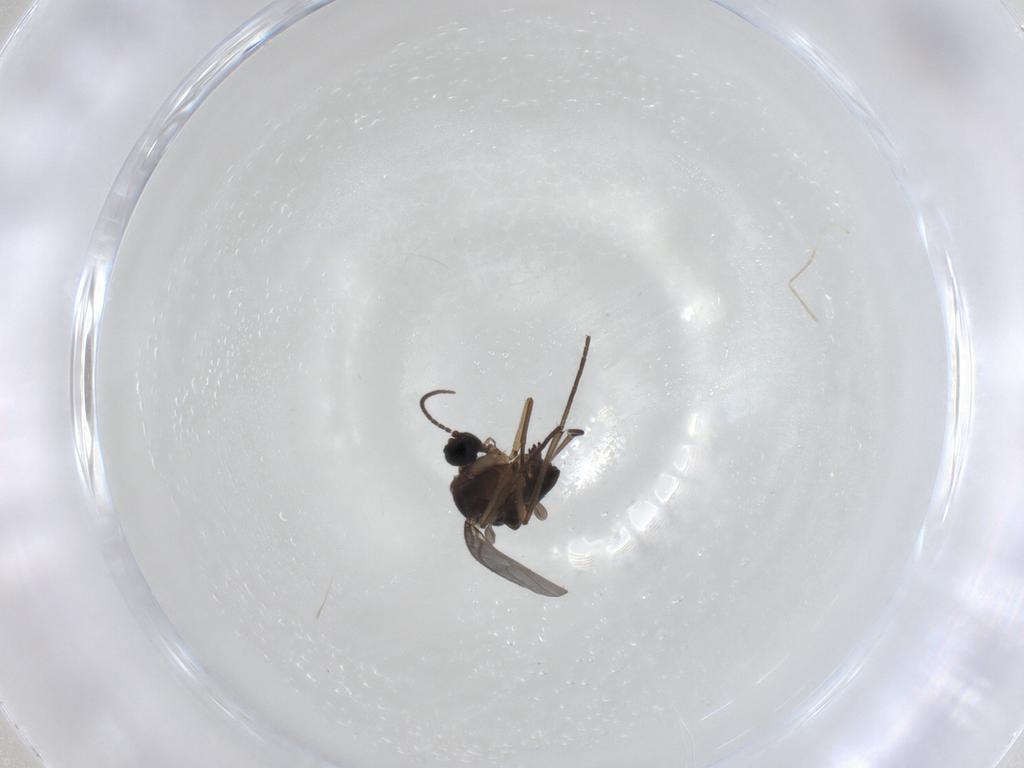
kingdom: Animalia
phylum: Arthropoda
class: Insecta
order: Diptera
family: Sciaridae
